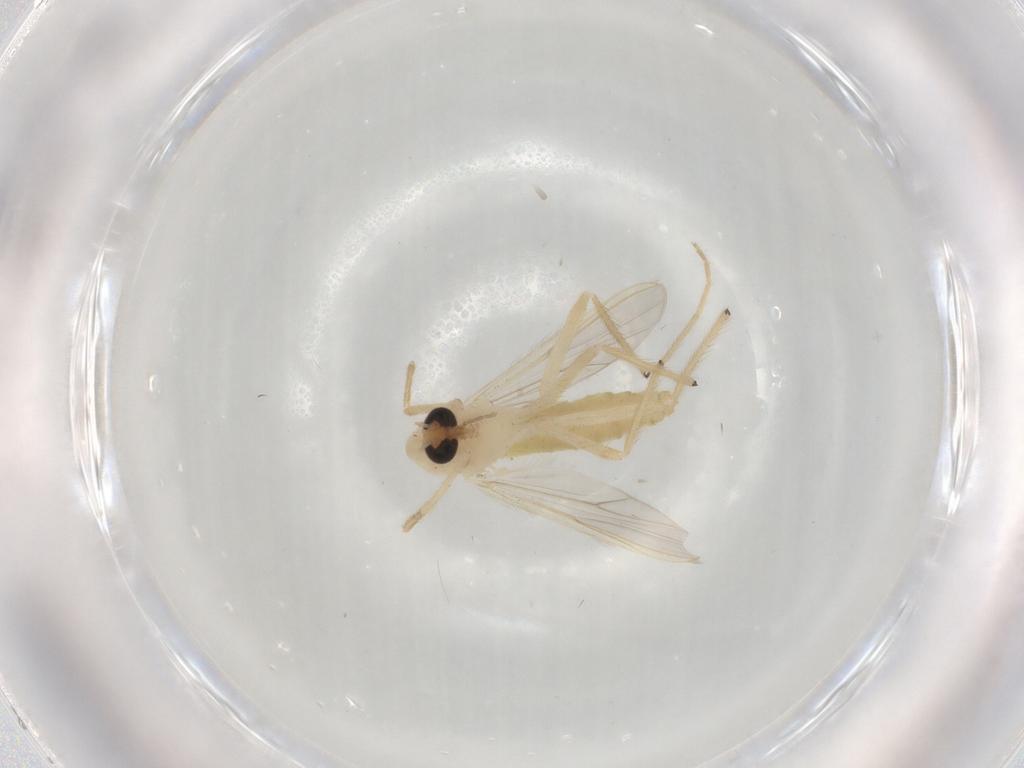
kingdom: Animalia
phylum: Arthropoda
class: Insecta
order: Diptera
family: Chironomidae
